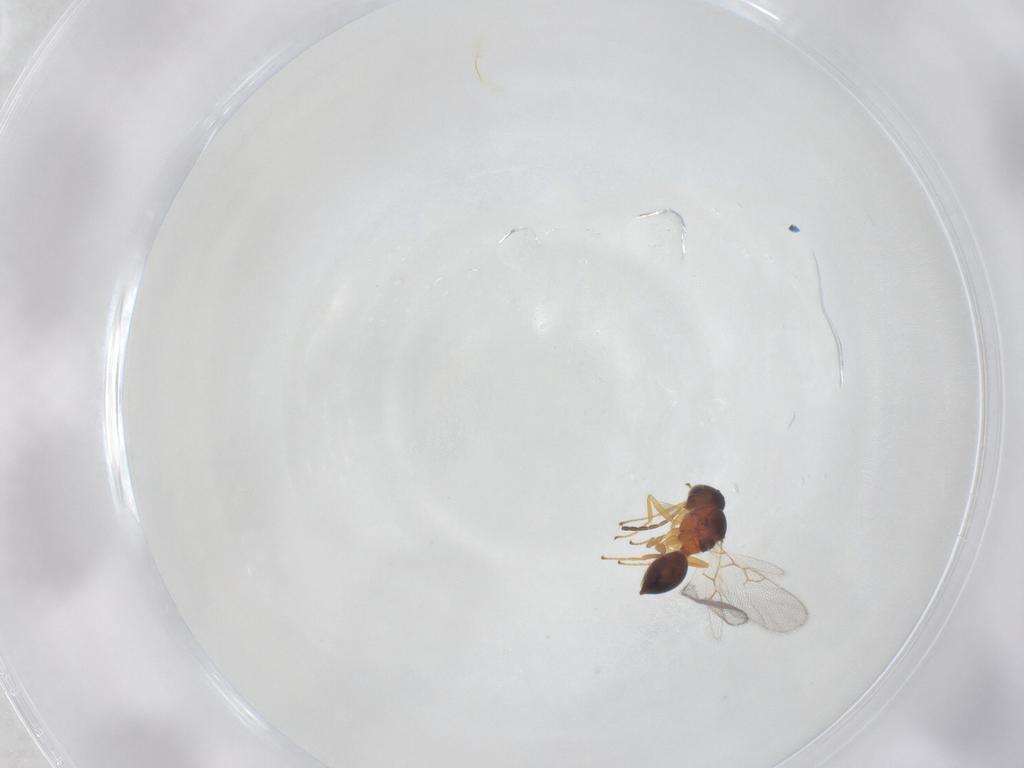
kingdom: Animalia
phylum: Arthropoda
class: Insecta
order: Hymenoptera
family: Figitidae
